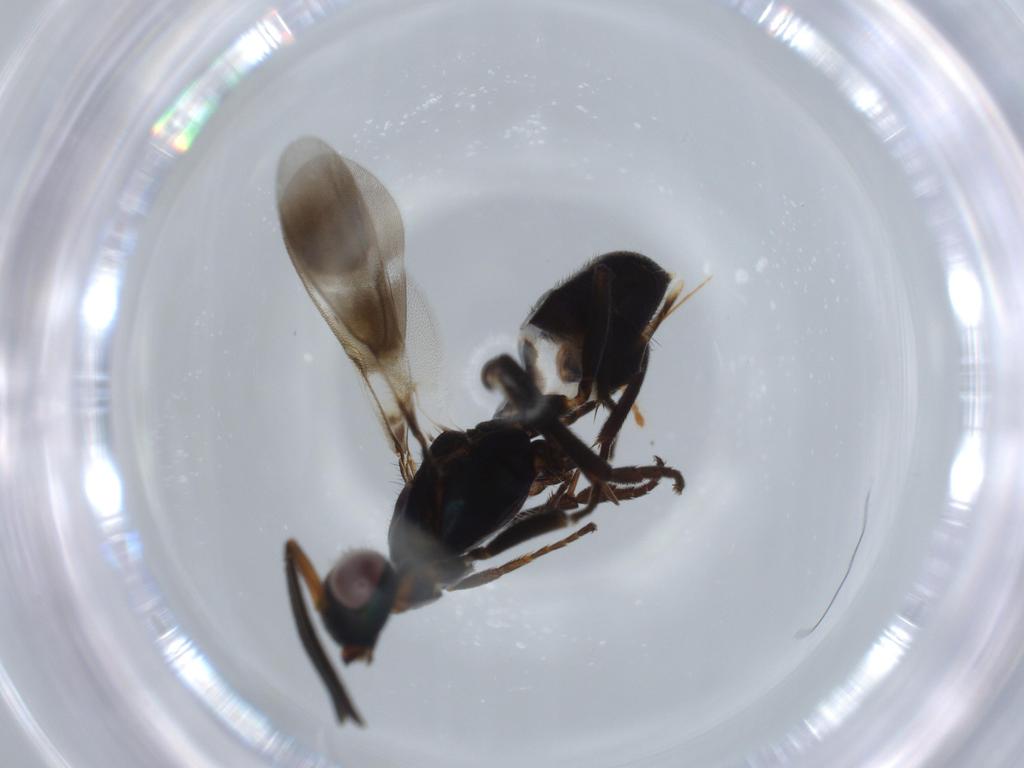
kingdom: Animalia
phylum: Arthropoda
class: Insecta
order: Hymenoptera
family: Eupelmidae
